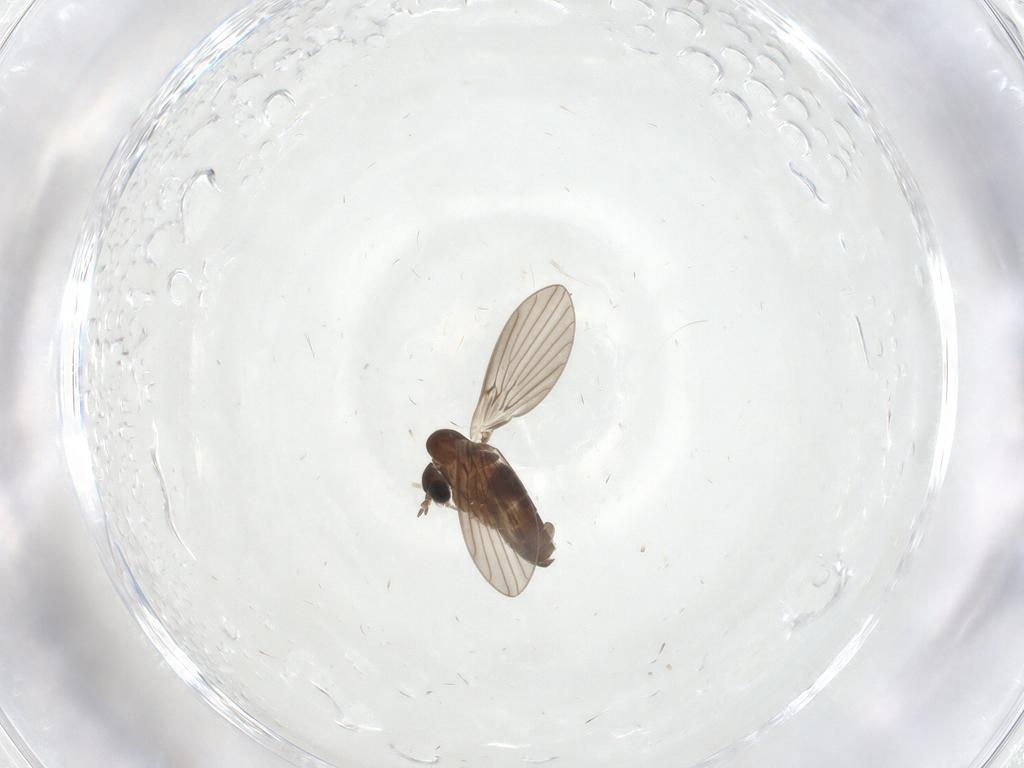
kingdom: Animalia
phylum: Arthropoda
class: Insecta
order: Diptera
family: Psychodidae
